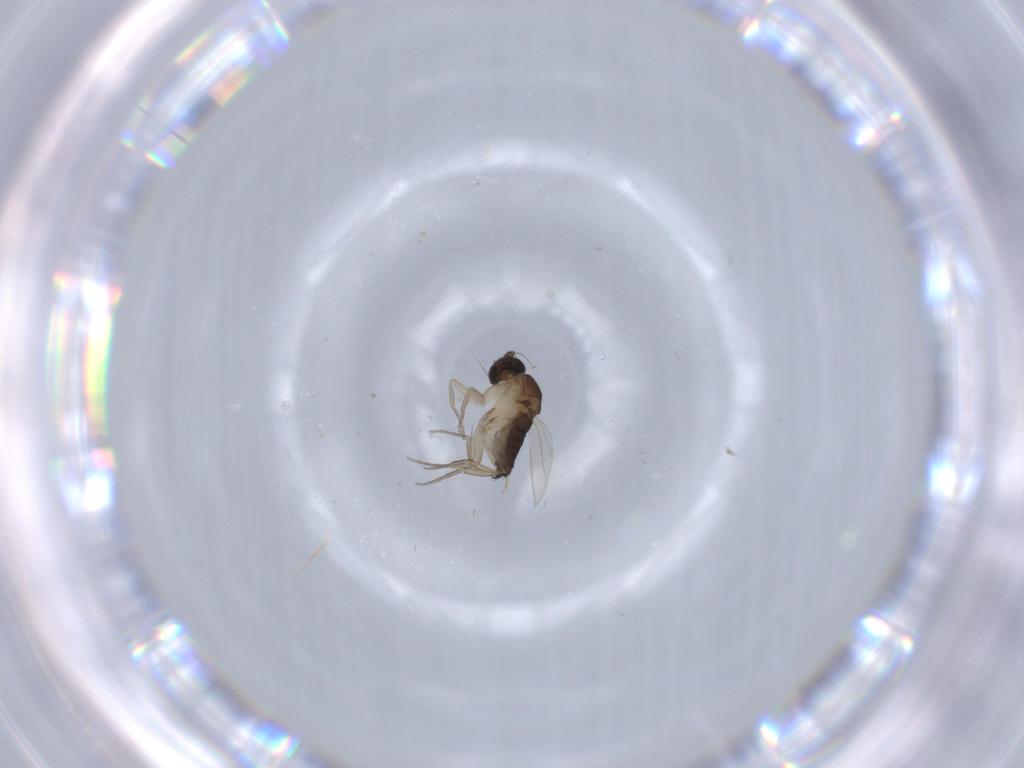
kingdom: Animalia
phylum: Arthropoda
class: Insecta
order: Diptera
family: Phoridae
